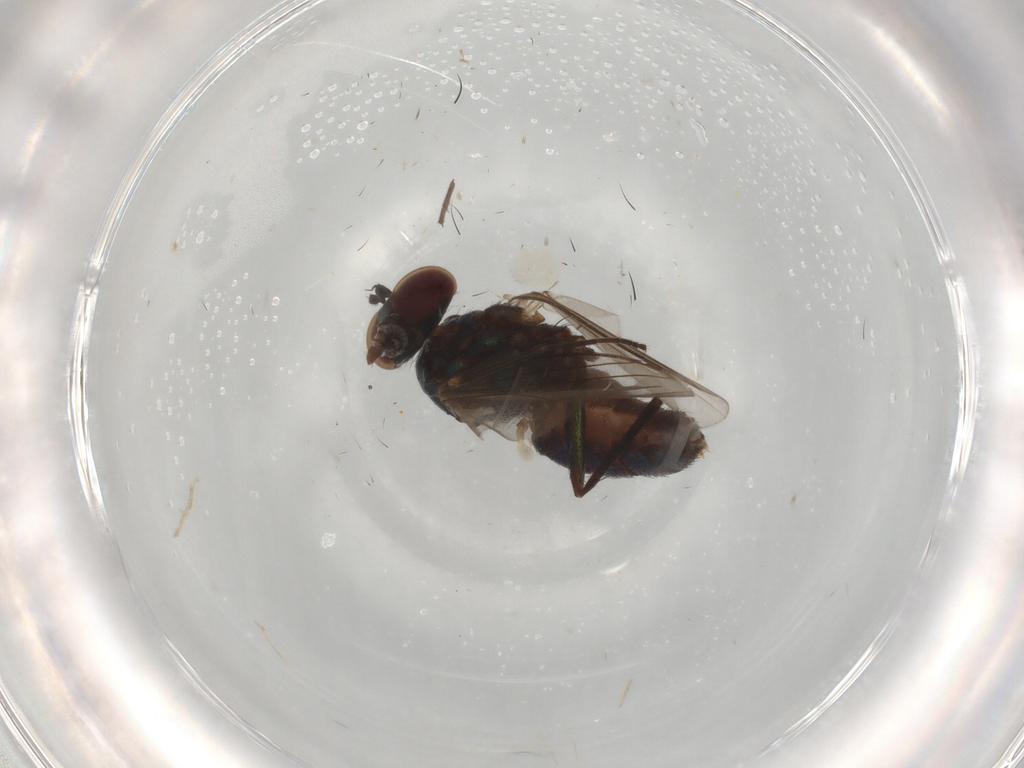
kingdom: Animalia
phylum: Arthropoda
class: Insecta
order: Diptera
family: Dolichopodidae
